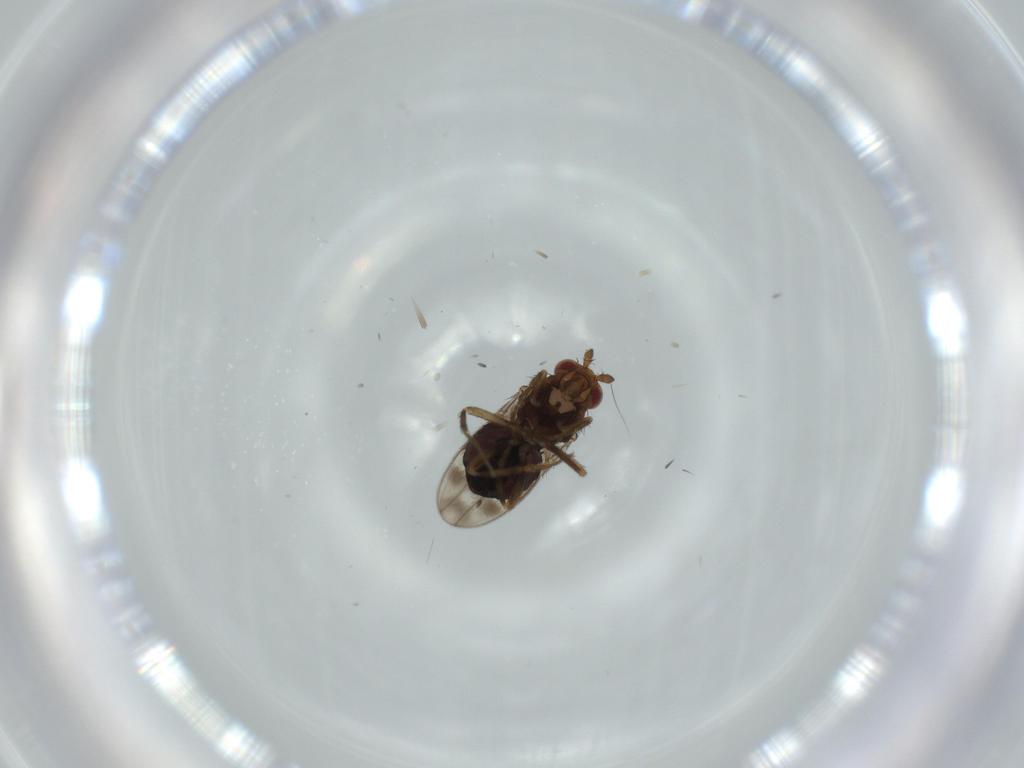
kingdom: Animalia
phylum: Arthropoda
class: Insecta
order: Diptera
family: Sphaeroceridae
